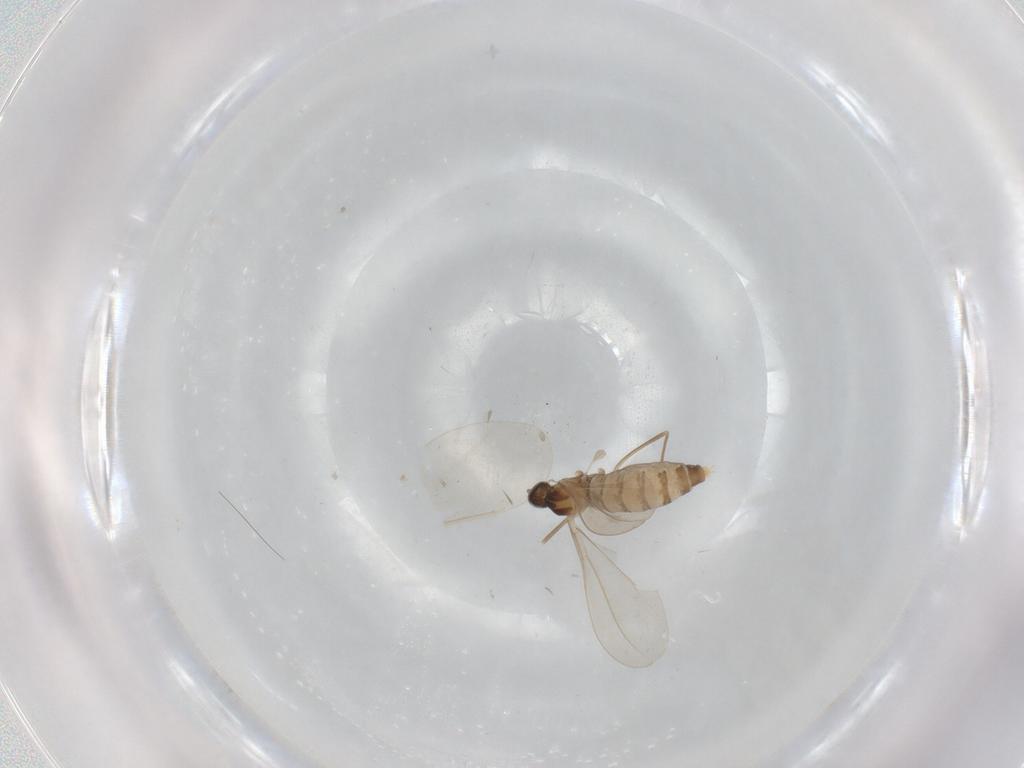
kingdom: Animalia
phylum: Arthropoda
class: Insecta
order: Diptera
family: Cecidomyiidae
